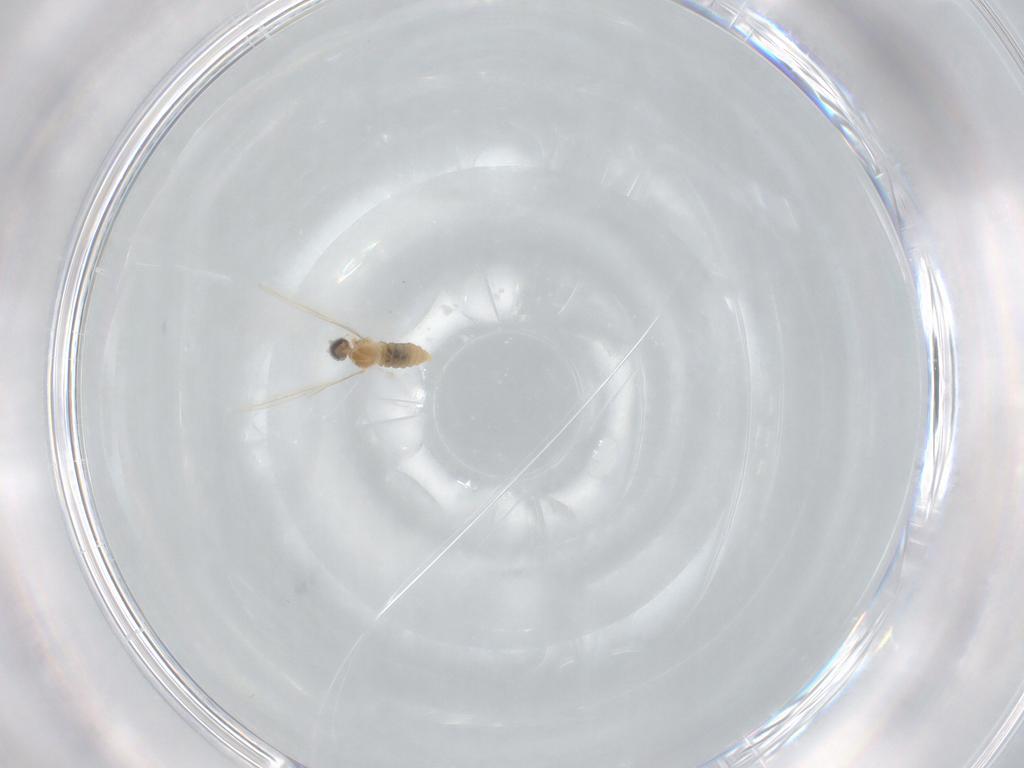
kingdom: Animalia
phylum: Arthropoda
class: Insecta
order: Diptera
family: Cecidomyiidae
